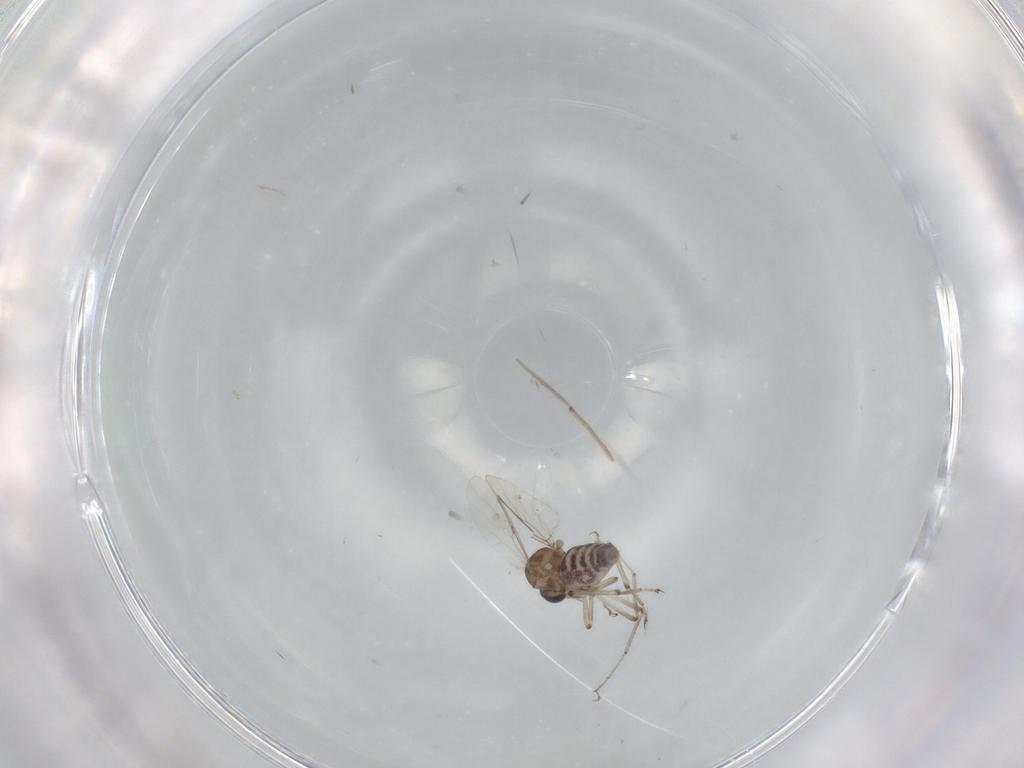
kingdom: Animalia
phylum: Arthropoda
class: Insecta
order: Diptera
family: Ceratopogonidae
